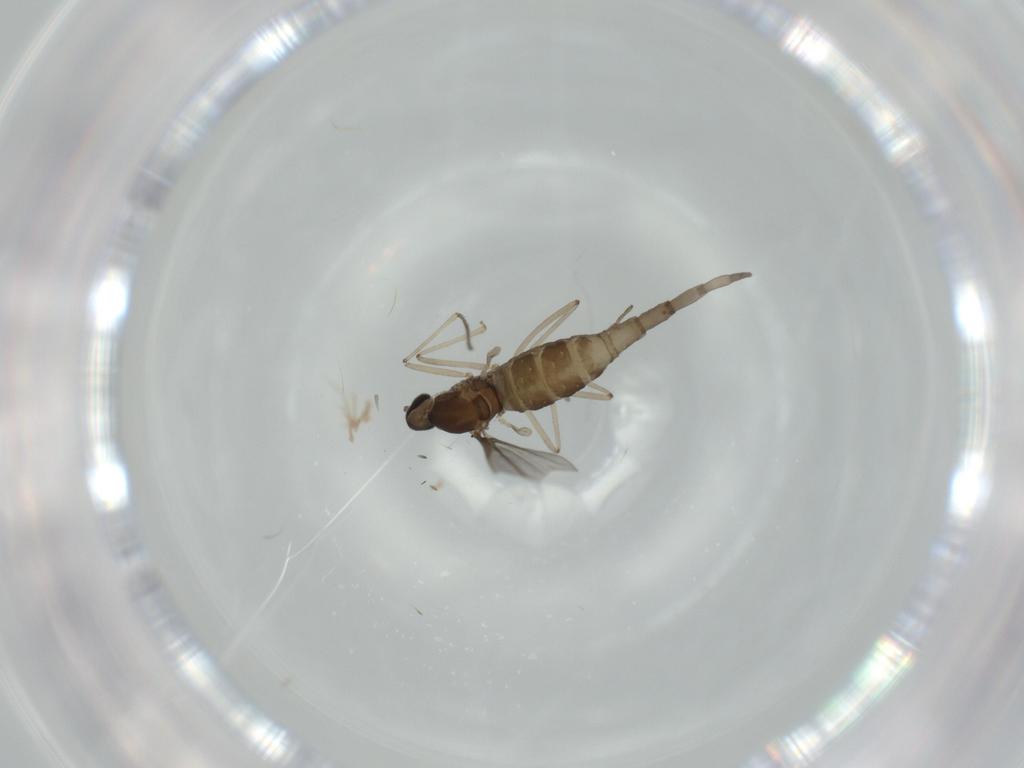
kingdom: Animalia
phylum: Arthropoda
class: Insecta
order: Diptera
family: Cecidomyiidae
